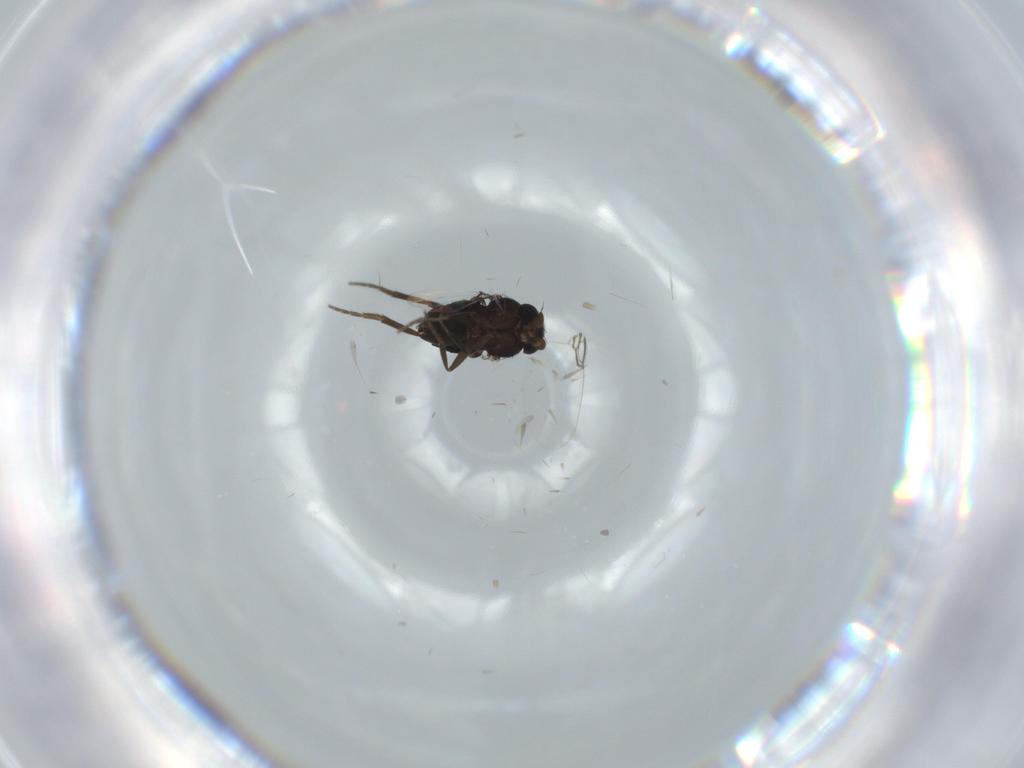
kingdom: Animalia
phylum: Arthropoda
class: Insecta
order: Diptera
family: Phoridae
